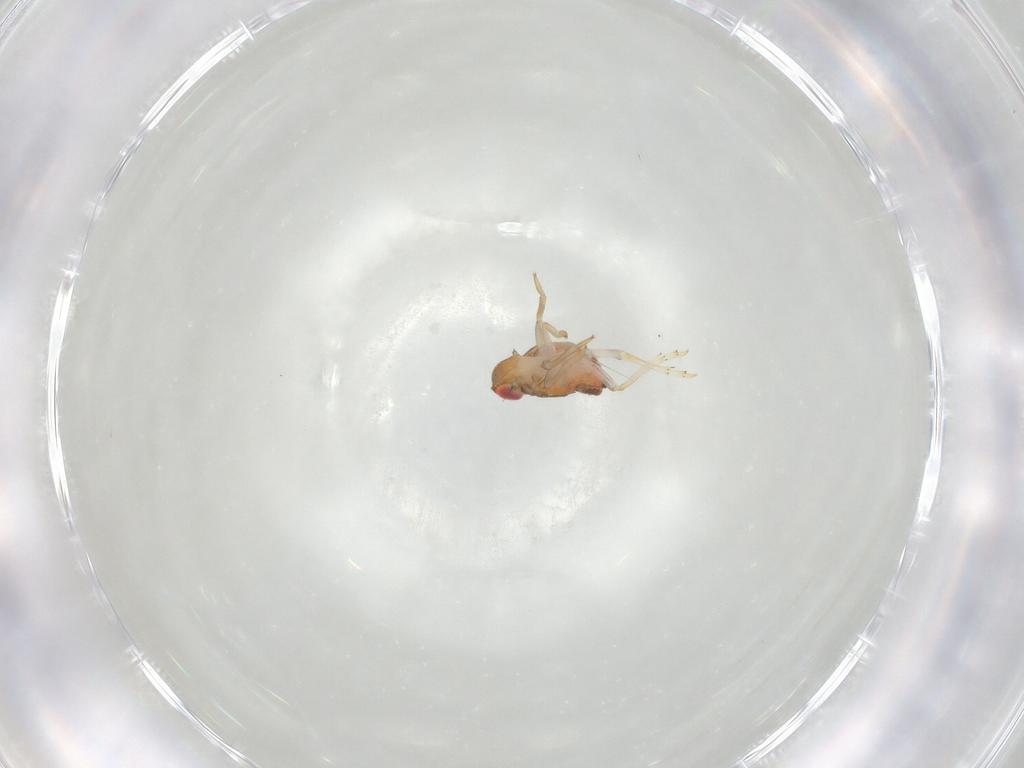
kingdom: Animalia
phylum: Arthropoda
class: Insecta
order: Hemiptera
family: Issidae
